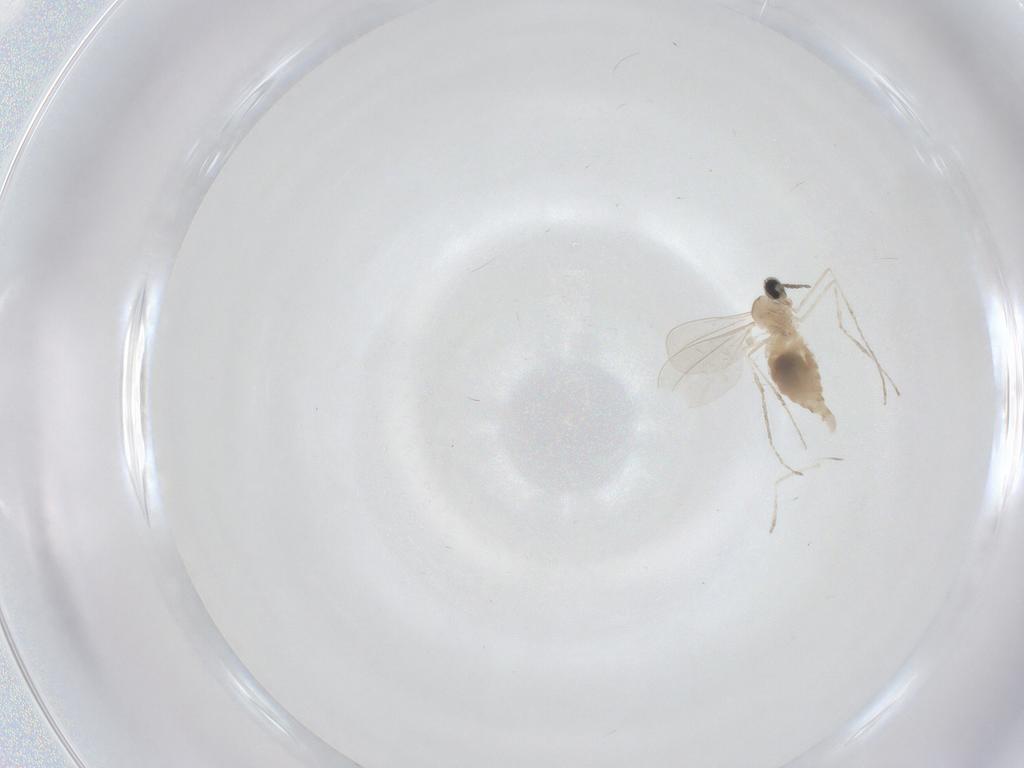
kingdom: Animalia
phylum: Arthropoda
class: Insecta
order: Diptera
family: Cecidomyiidae
